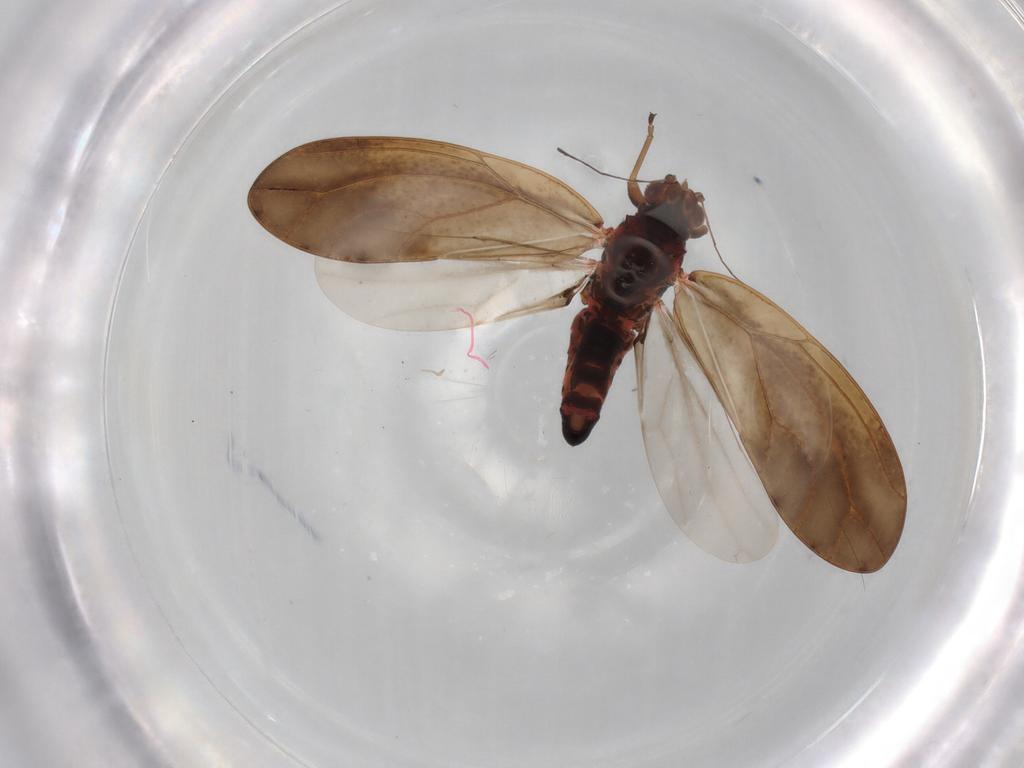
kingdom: Animalia
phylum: Arthropoda
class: Insecta
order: Hemiptera
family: Triozidae
